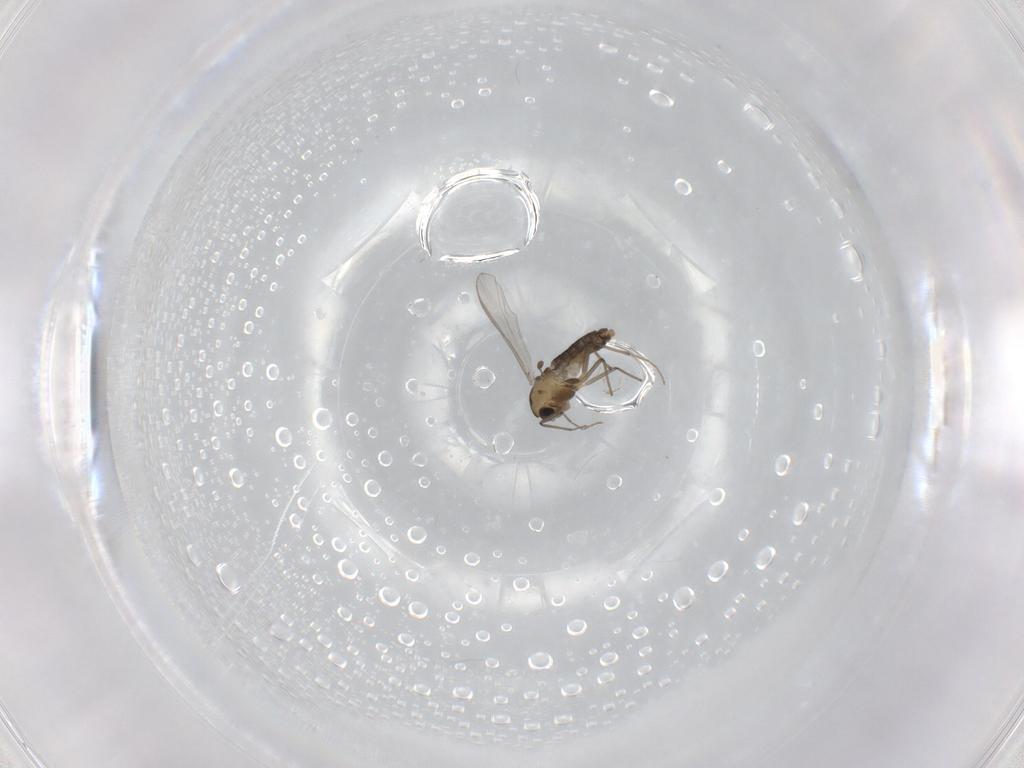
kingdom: Animalia
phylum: Arthropoda
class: Insecta
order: Diptera
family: Chironomidae
